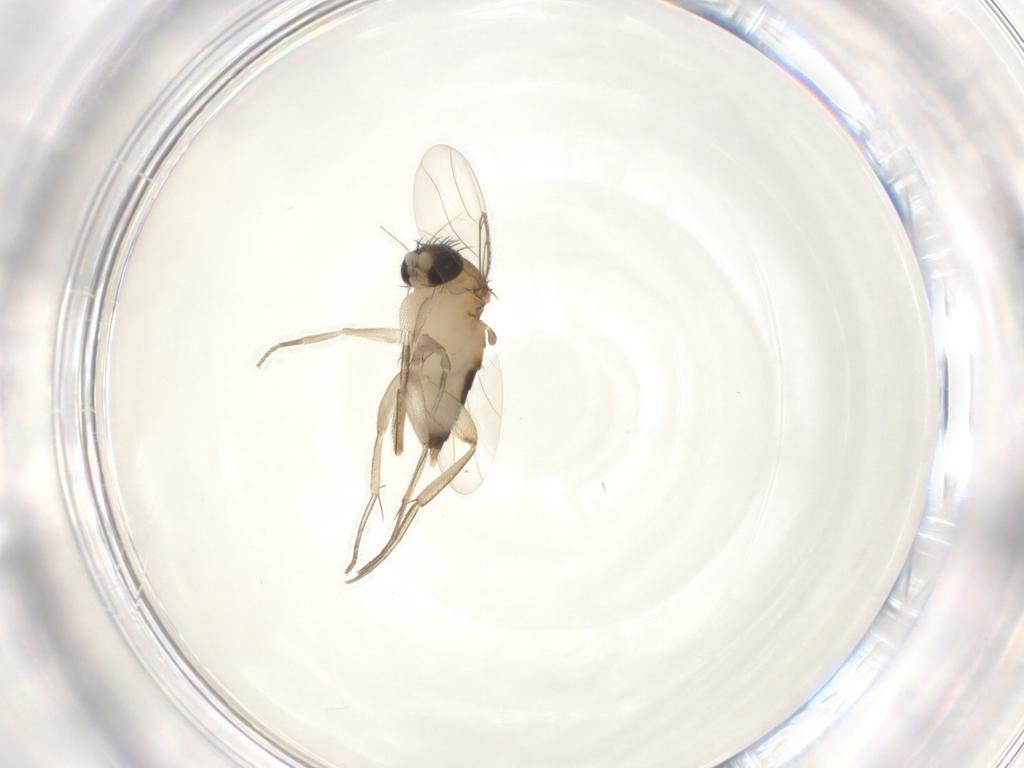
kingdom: Animalia
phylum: Arthropoda
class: Insecta
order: Diptera
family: Phoridae
